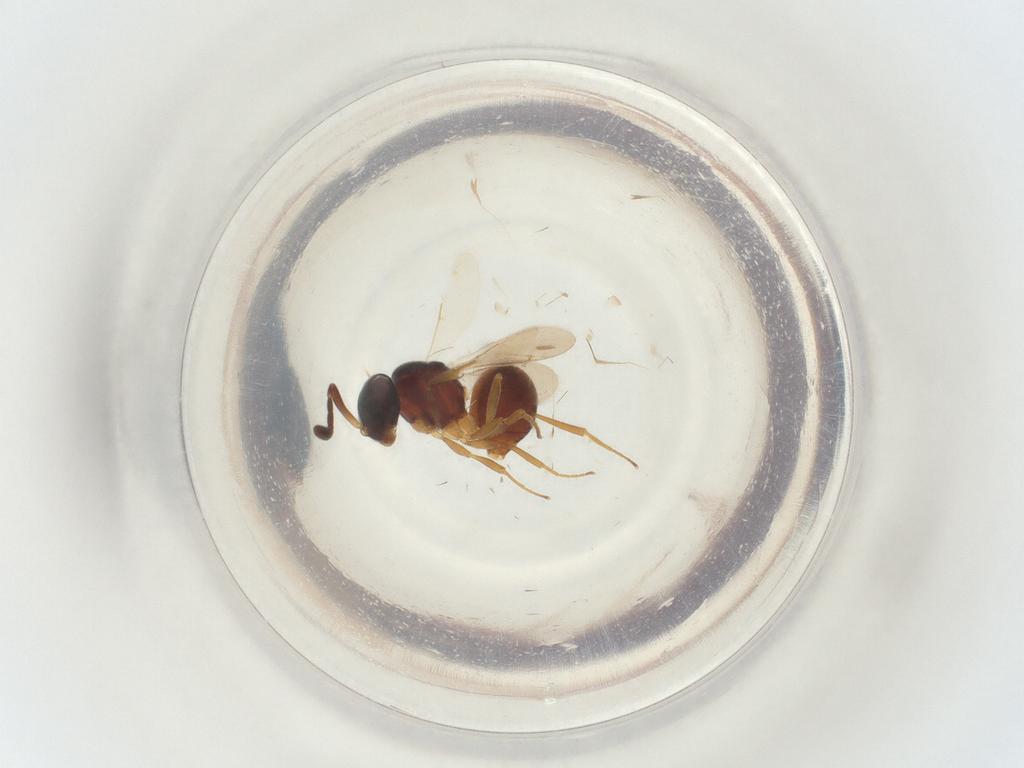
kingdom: Animalia
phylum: Arthropoda
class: Insecta
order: Hymenoptera
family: Scelionidae
